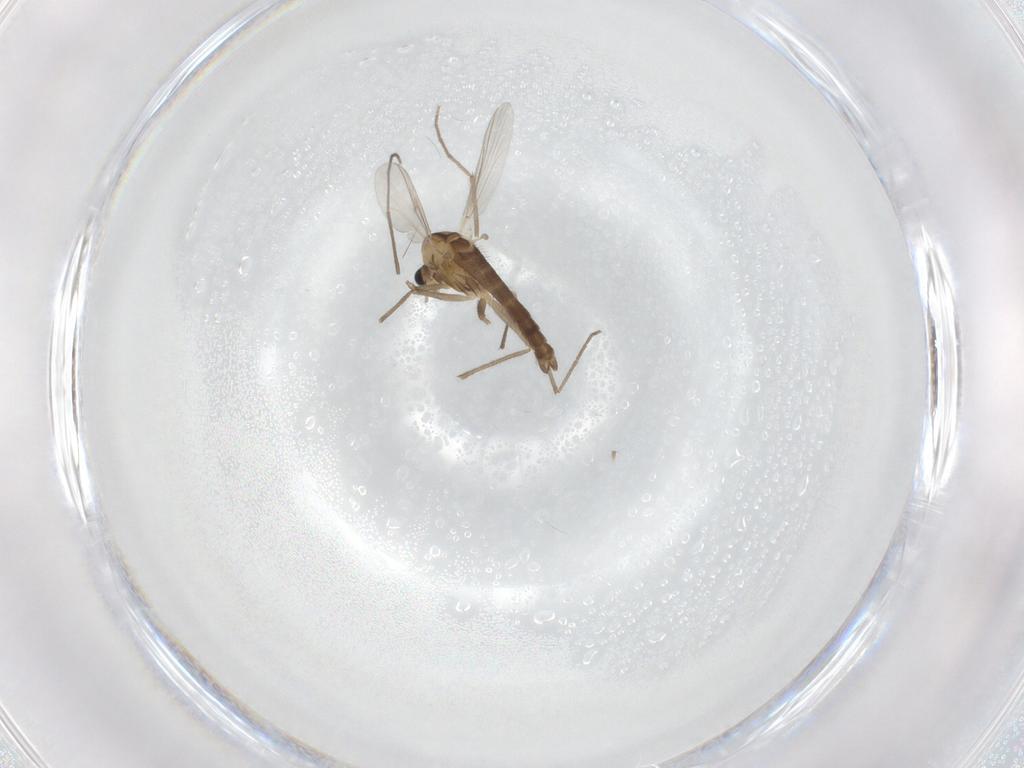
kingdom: Animalia
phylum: Arthropoda
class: Insecta
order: Diptera
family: Chironomidae
